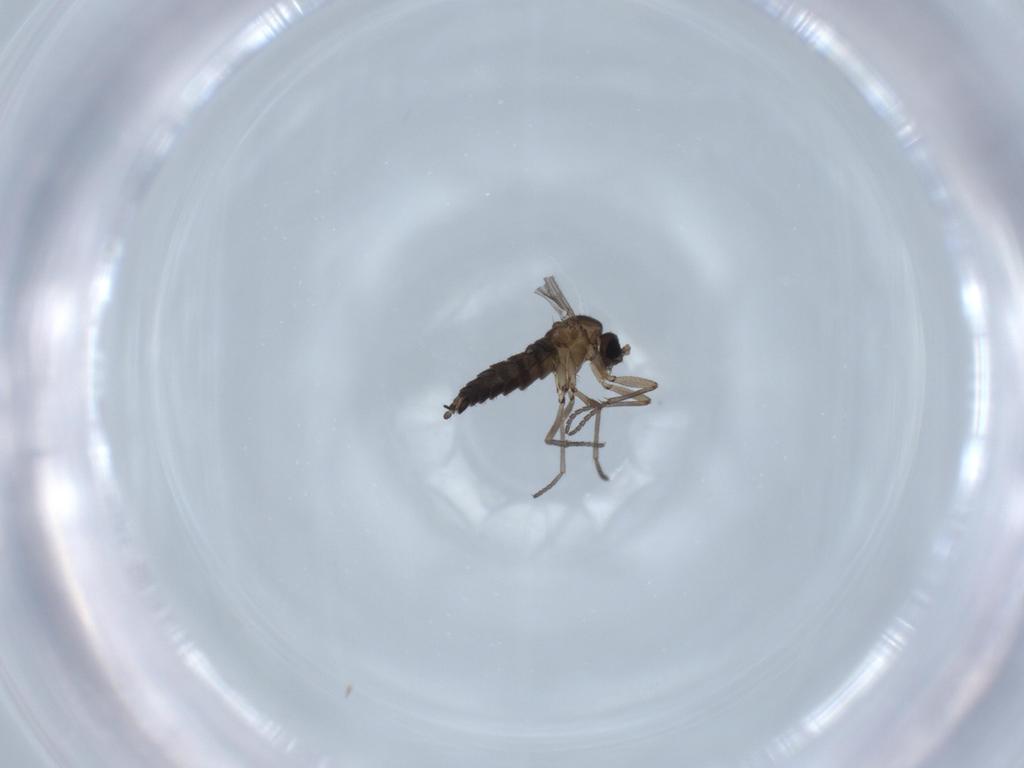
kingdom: Animalia
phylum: Arthropoda
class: Insecta
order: Diptera
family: Sciaridae
